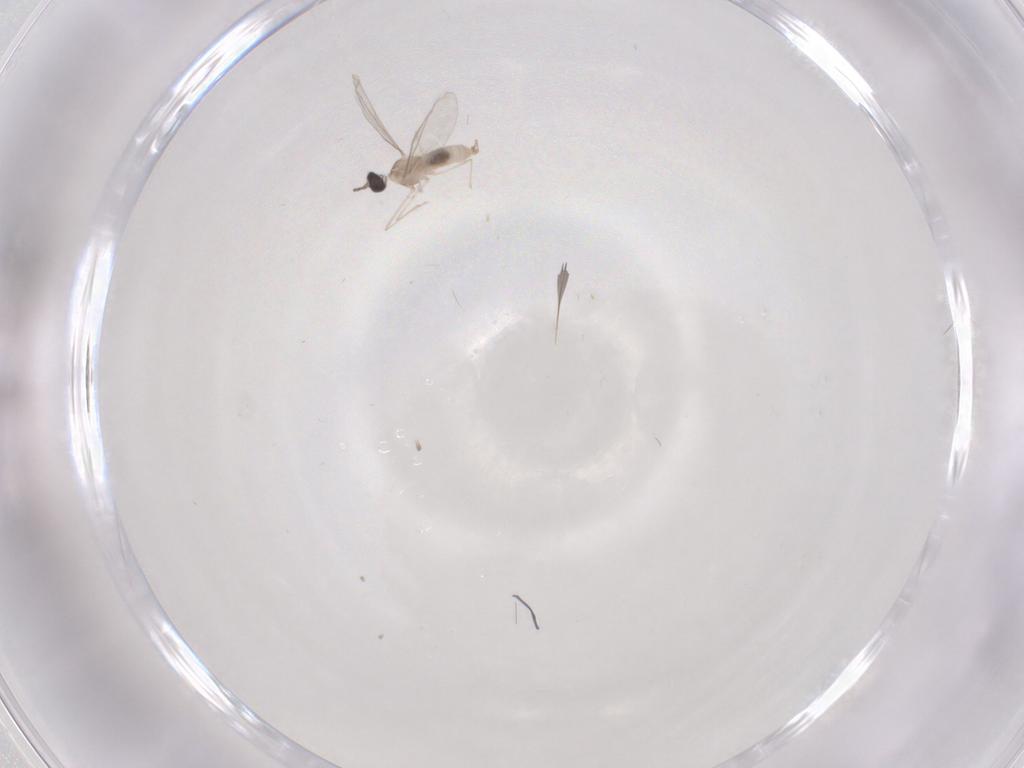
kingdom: Animalia
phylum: Arthropoda
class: Insecta
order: Diptera
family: Cecidomyiidae
